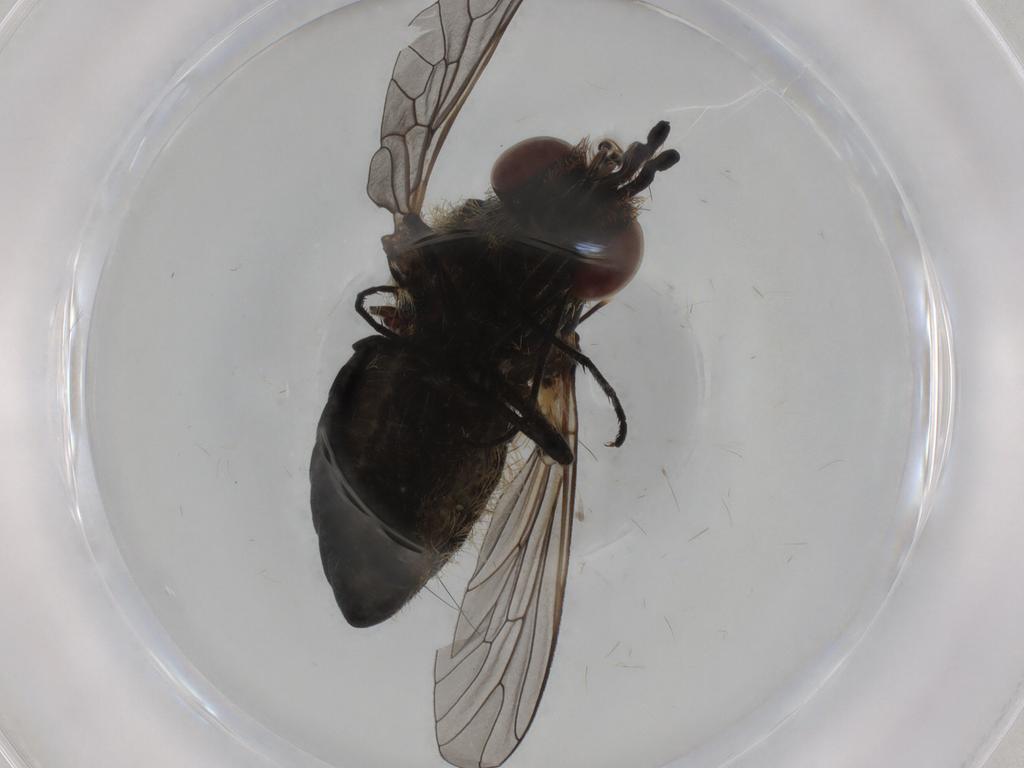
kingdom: Animalia
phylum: Arthropoda
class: Insecta
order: Diptera
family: Bombyliidae
